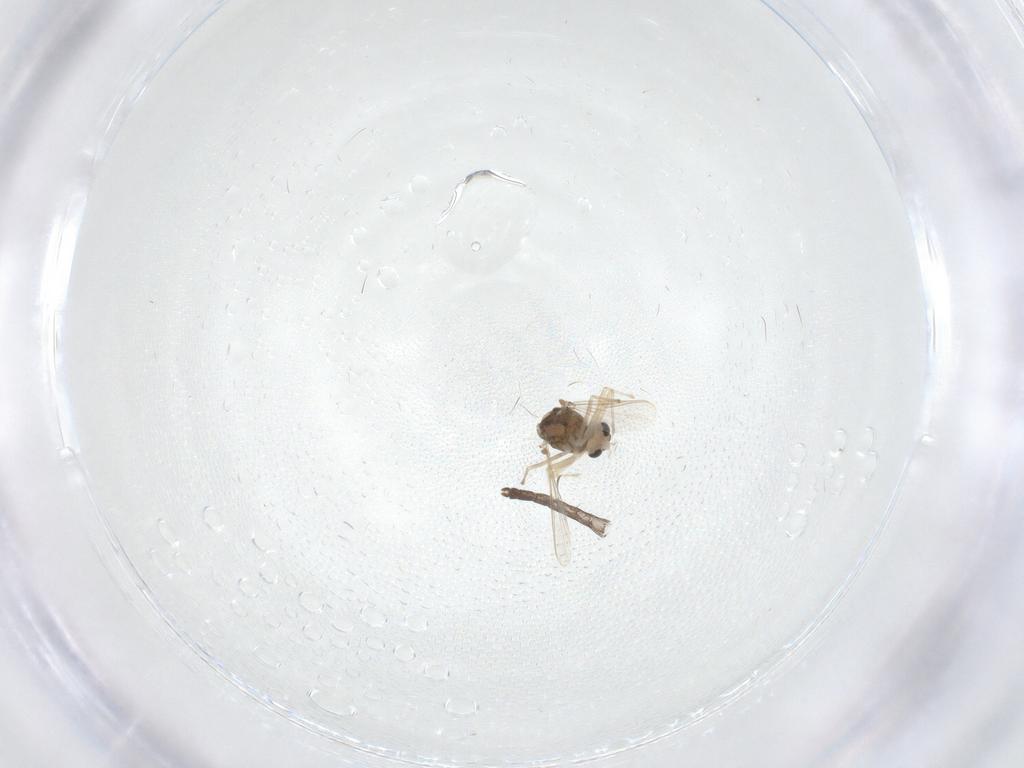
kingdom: Animalia
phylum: Arthropoda
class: Insecta
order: Diptera
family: Chironomidae
